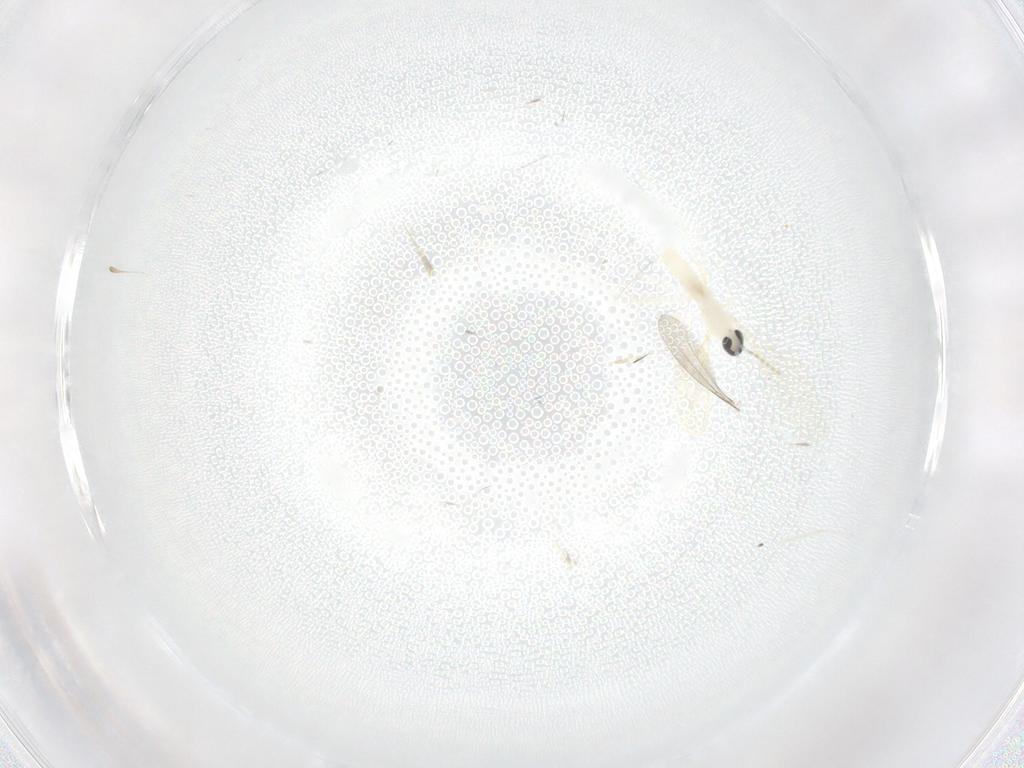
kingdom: Animalia
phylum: Arthropoda
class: Insecta
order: Diptera
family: Cecidomyiidae
